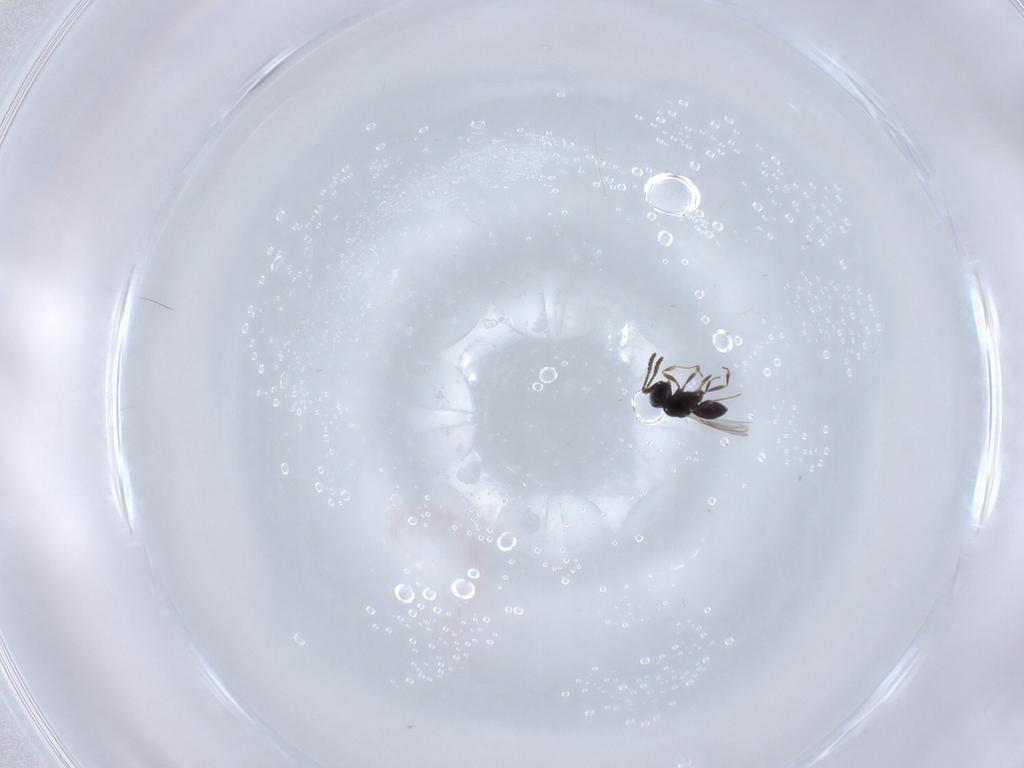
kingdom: Animalia
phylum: Arthropoda
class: Insecta
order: Hymenoptera
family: Scelionidae
